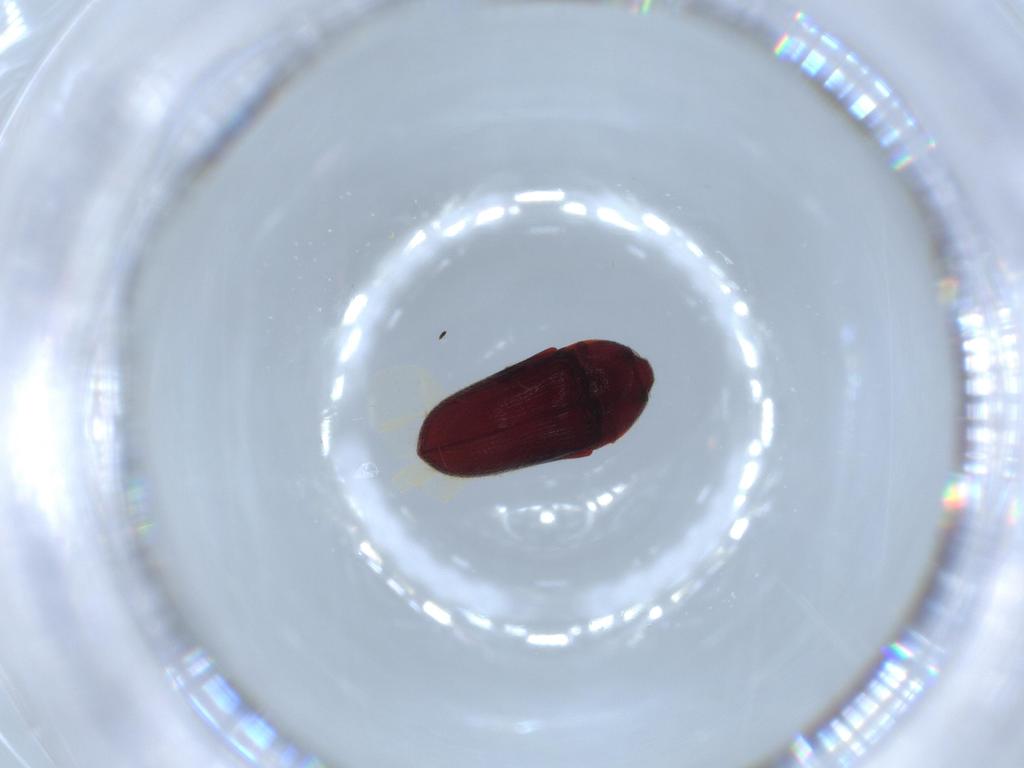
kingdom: Animalia
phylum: Arthropoda
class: Insecta
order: Coleoptera
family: Throscidae
